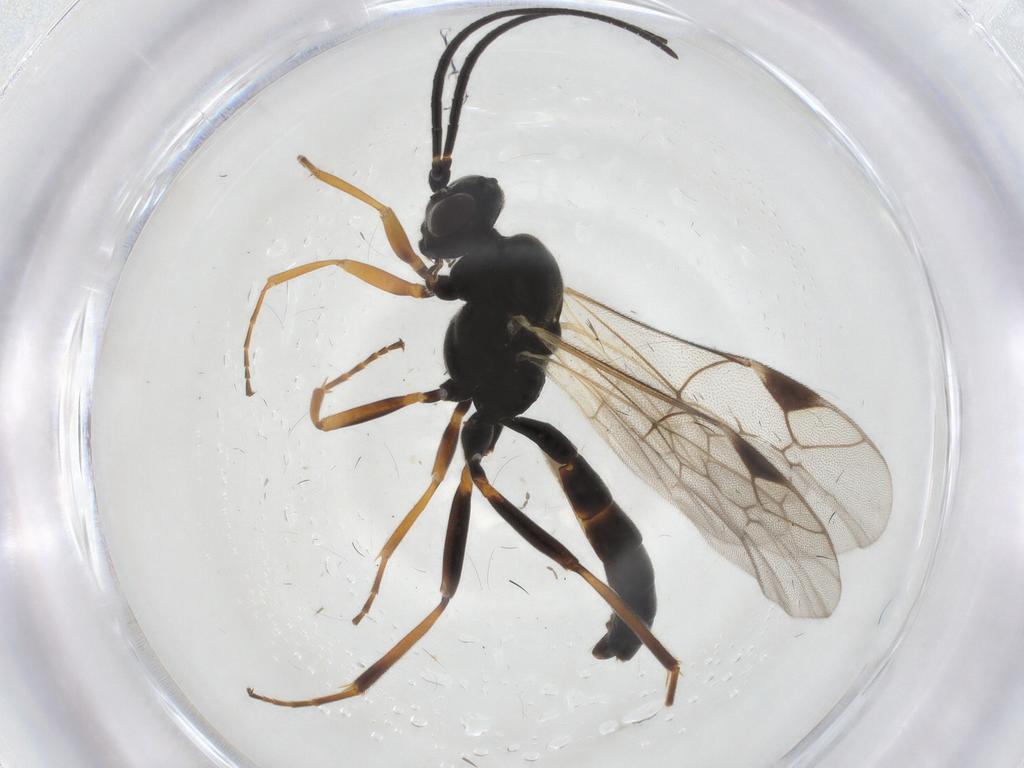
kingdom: Animalia
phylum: Arthropoda
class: Insecta
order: Hymenoptera
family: Ichneumonidae
